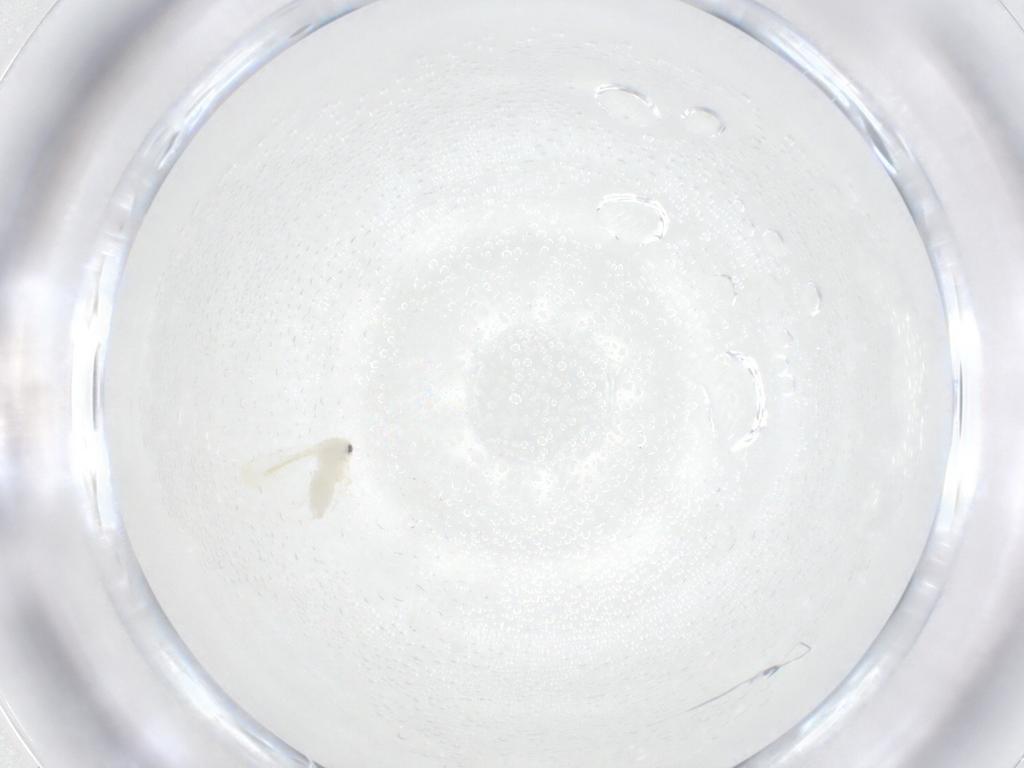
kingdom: Animalia
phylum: Arthropoda
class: Insecta
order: Hemiptera
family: Aleyrodidae
